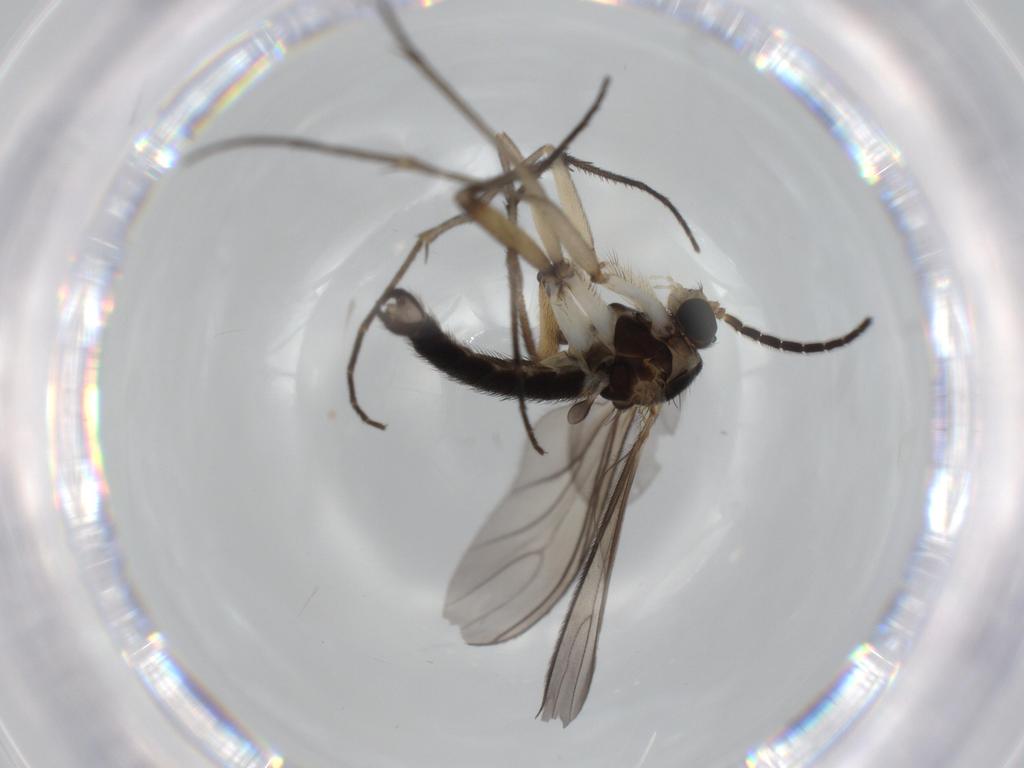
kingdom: Animalia
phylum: Arthropoda
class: Insecta
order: Diptera
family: Sciaridae
